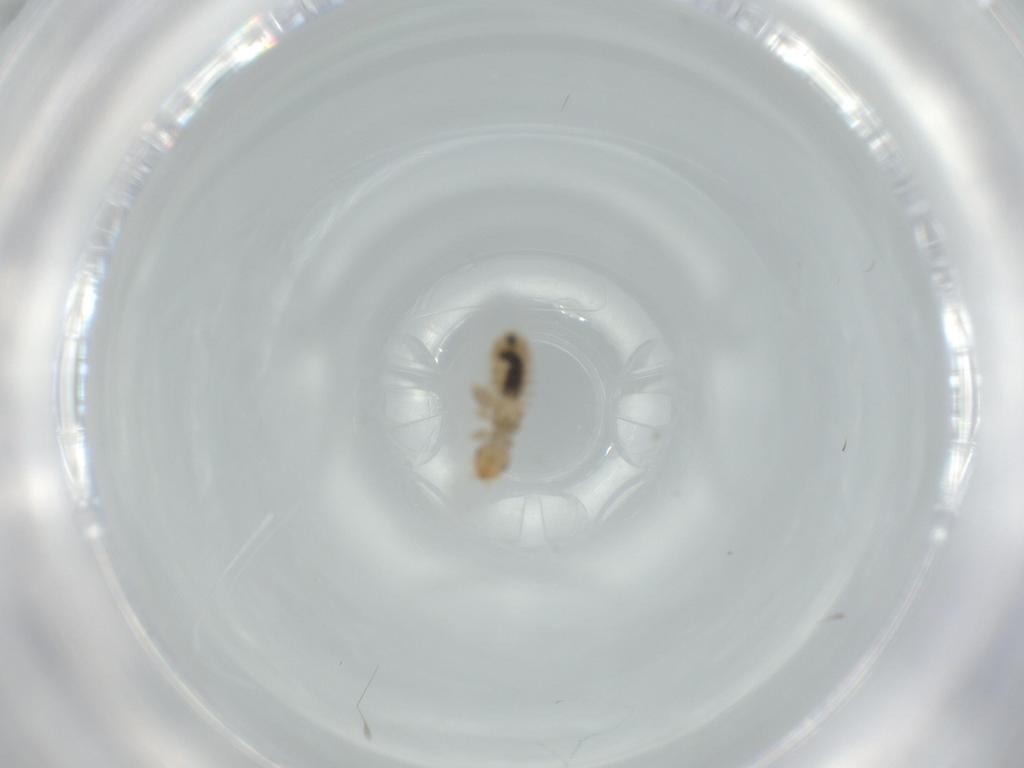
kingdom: Animalia
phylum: Arthropoda
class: Insecta
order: Psocodea
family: Liposcelididae
